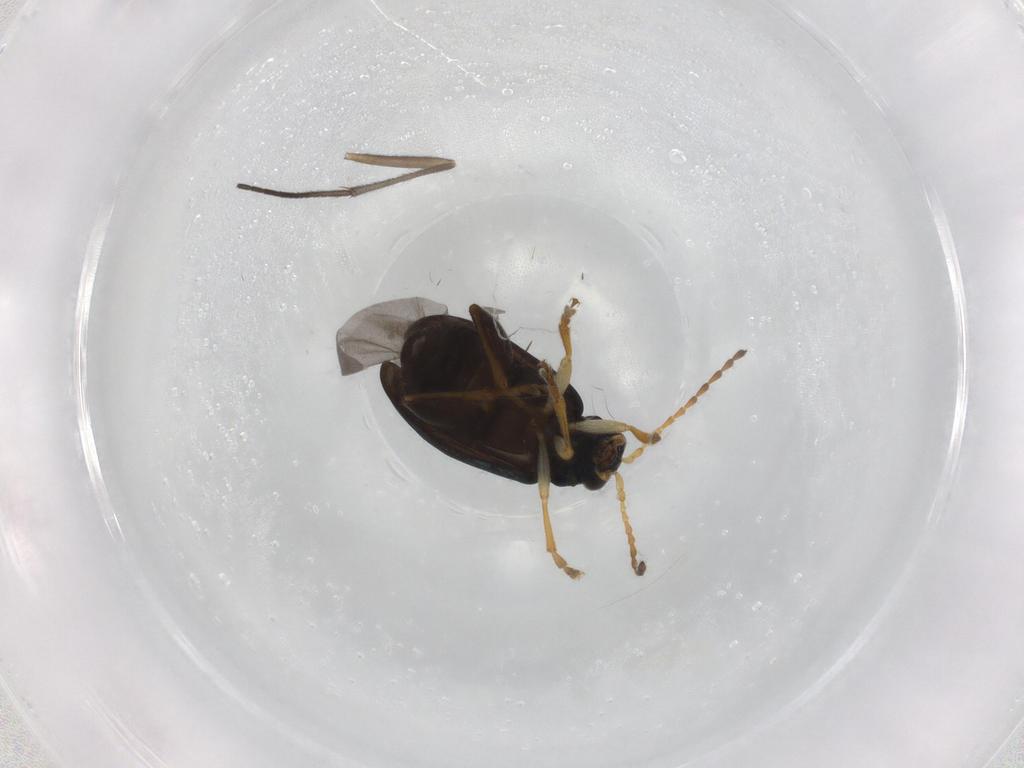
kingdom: Animalia
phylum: Arthropoda
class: Insecta
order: Coleoptera
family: Chrysomelidae
